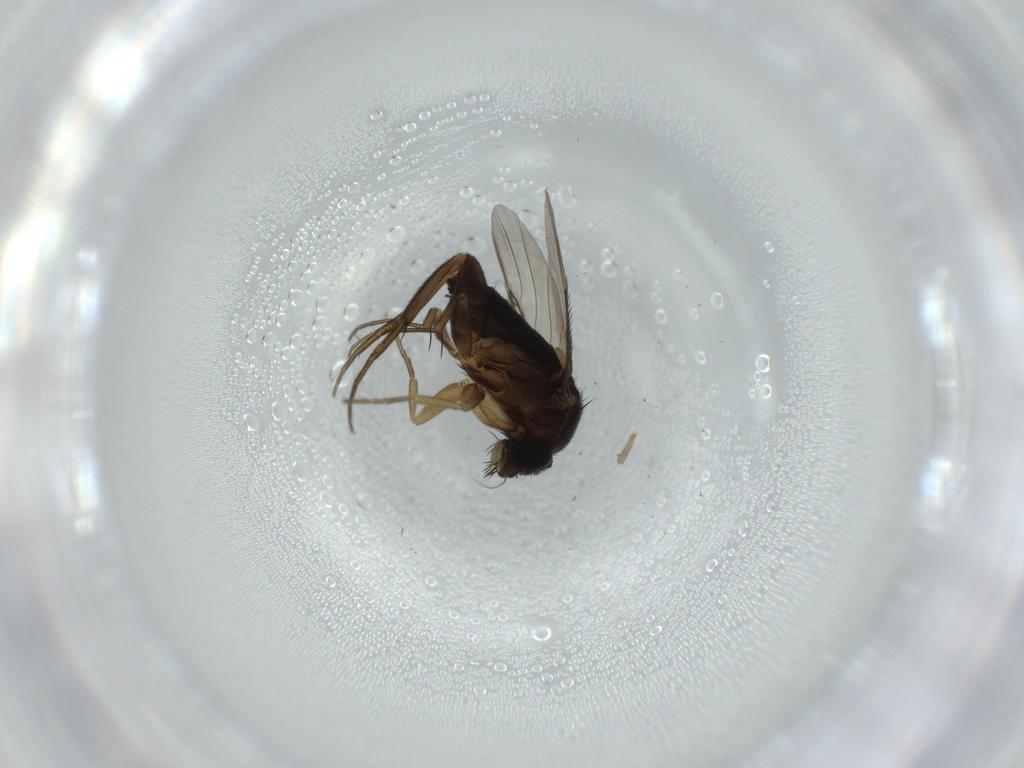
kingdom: Animalia
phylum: Arthropoda
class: Insecta
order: Diptera
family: Phoridae
